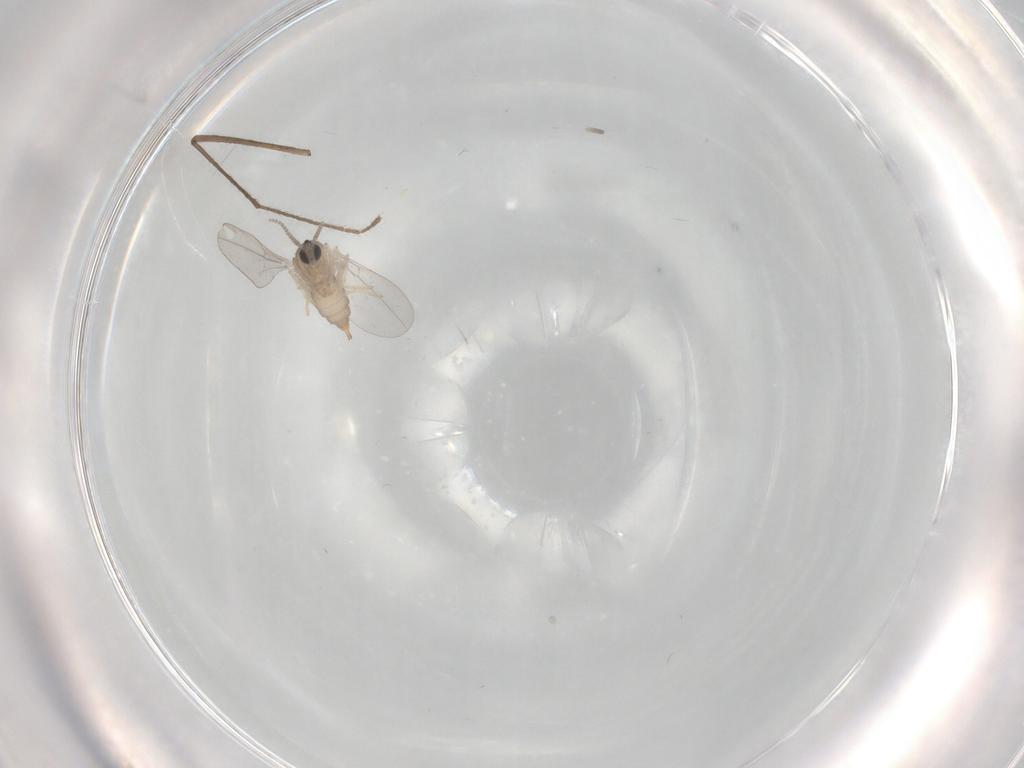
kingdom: Animalia
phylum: Arthropoda
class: Insecta
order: Diptera
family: Cecidomyiidae
